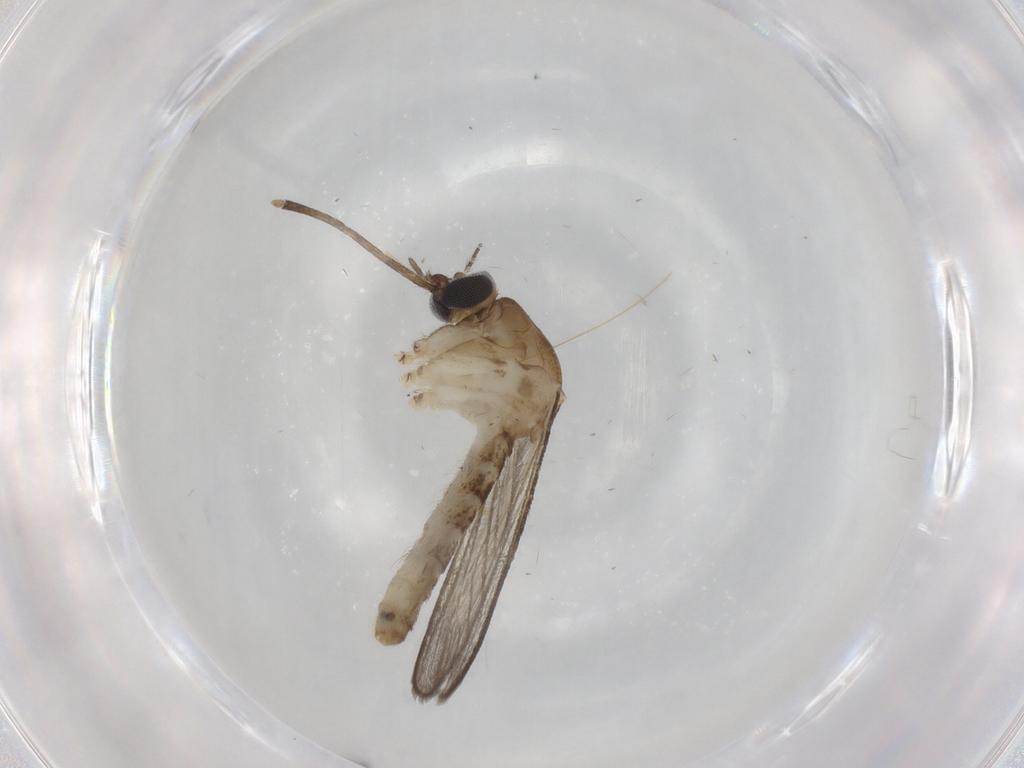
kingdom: Animalia
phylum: Arthropoda
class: Insecta
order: Diptera
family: Culicidae
